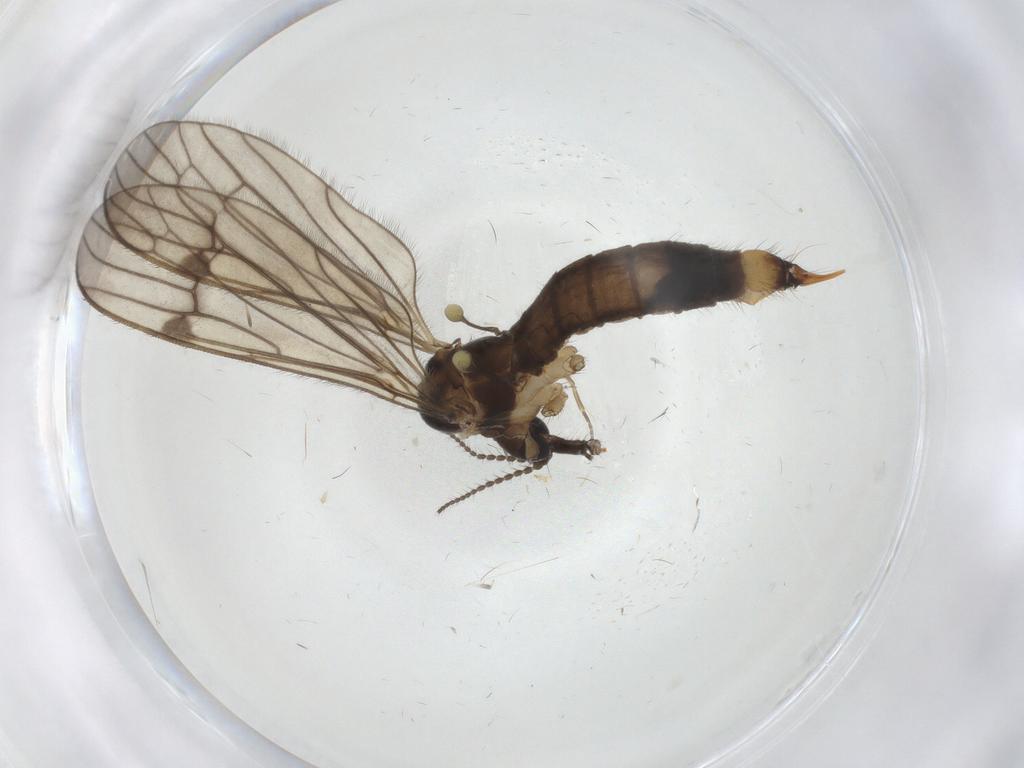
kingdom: Animalia
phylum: Arthropoda
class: Insecta
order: Diptera
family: Limoniidae
